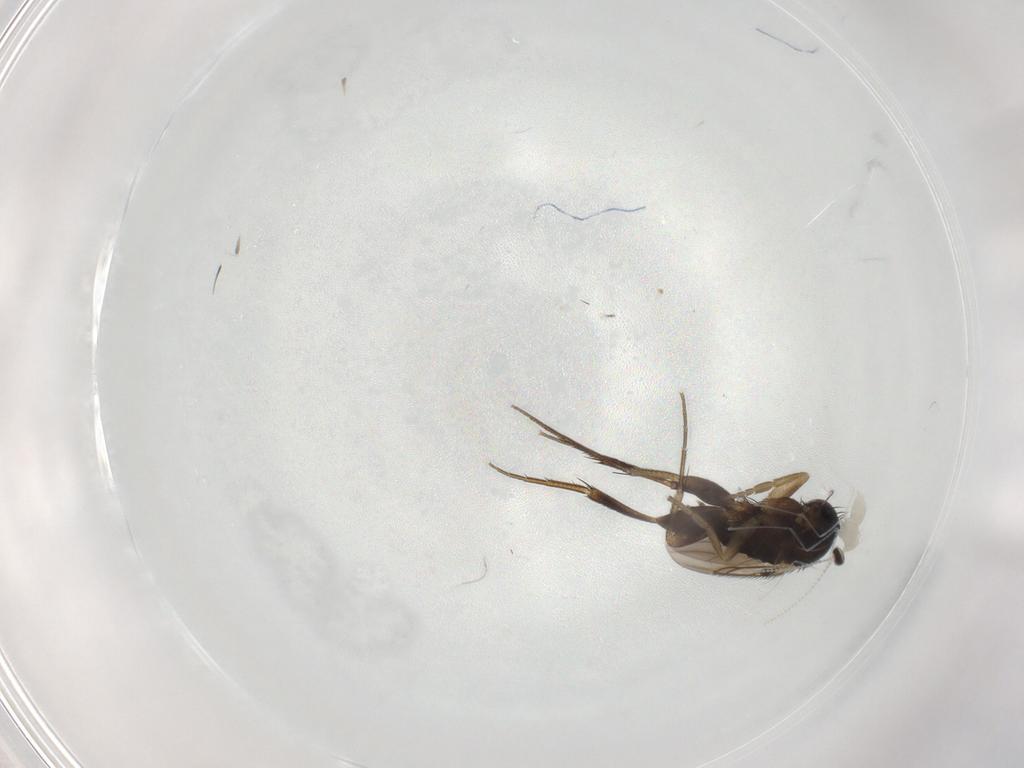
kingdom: Animalia
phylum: Arthropoda
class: Insecta
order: Diptera
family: Phoridae
